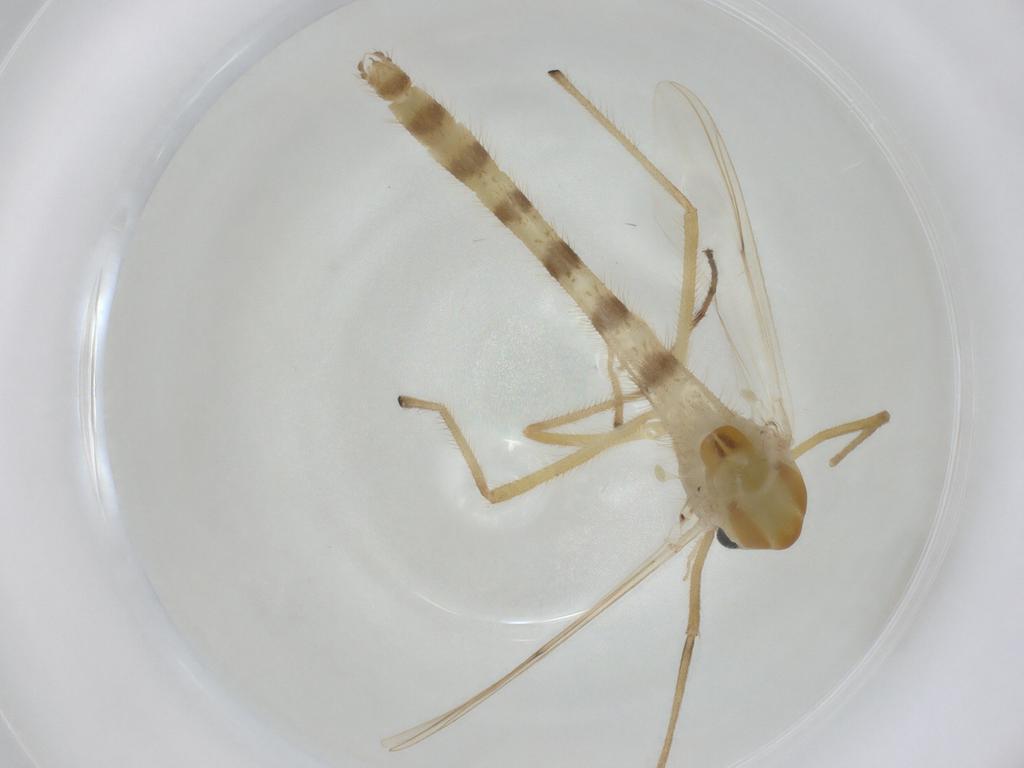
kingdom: Animalia
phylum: Arthropoda
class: Insecta
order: Diptera
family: Chironomidae
